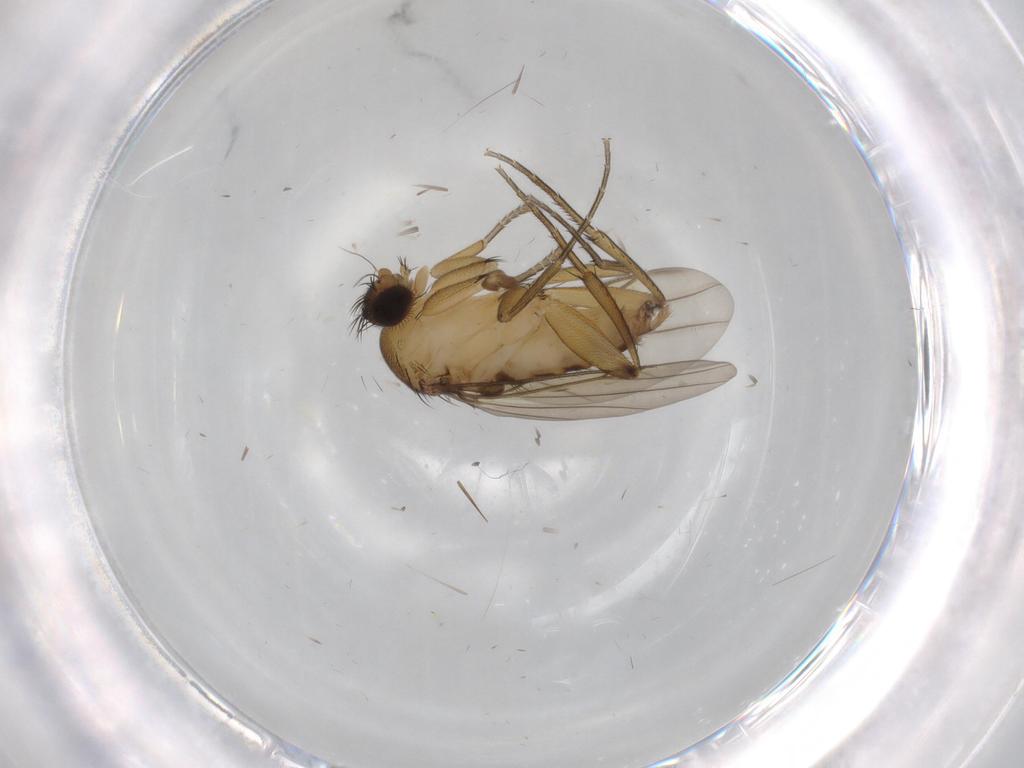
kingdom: Animalia
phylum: Arthropoda
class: Insecta
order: Diptera
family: Phoridae
